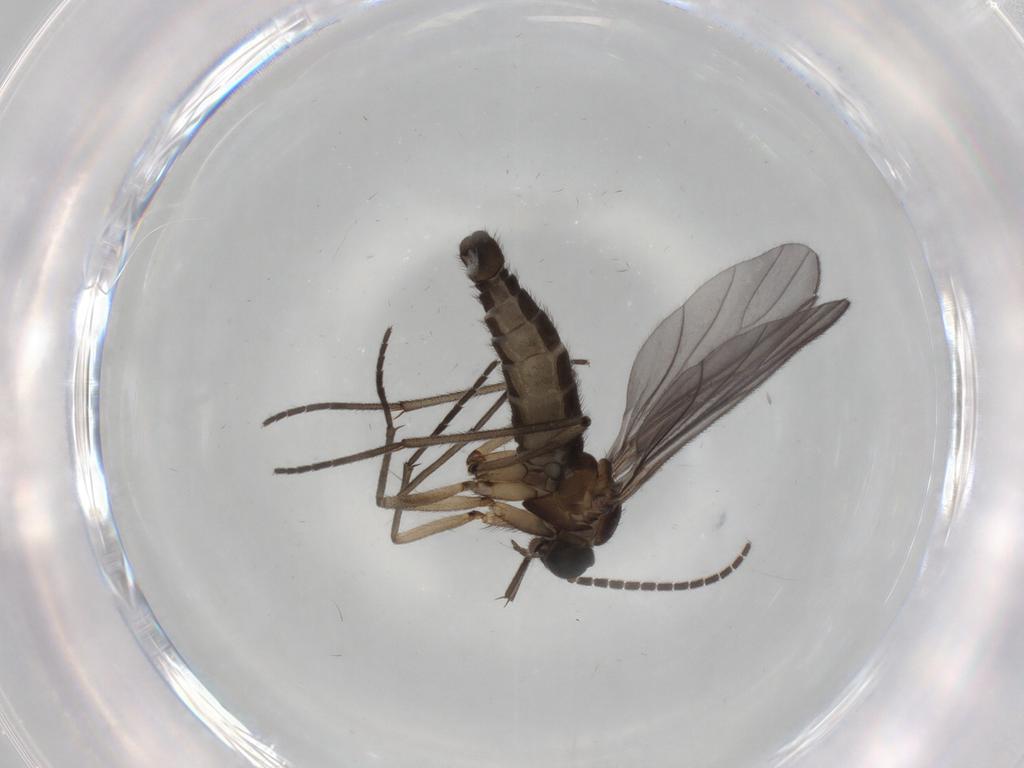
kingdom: Animalia
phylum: Arthropoda
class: Insecta
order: Diptera
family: Sciaridae
